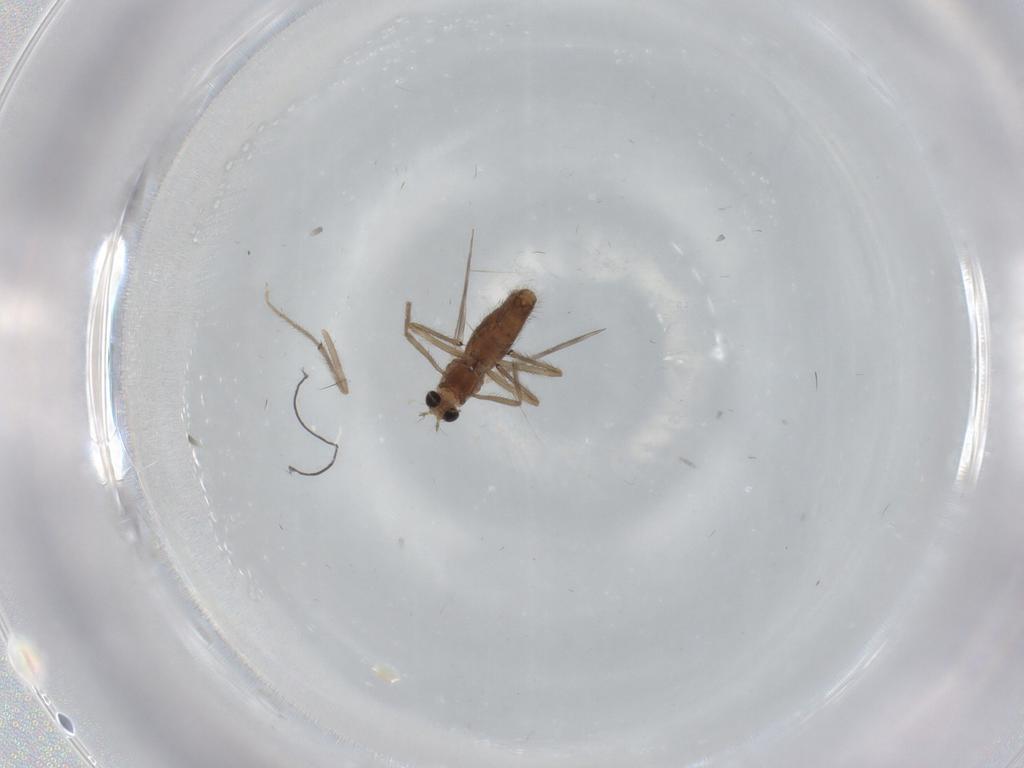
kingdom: Animalia
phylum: Arthropoda
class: Insecta
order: Diptera
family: Chironomidae
